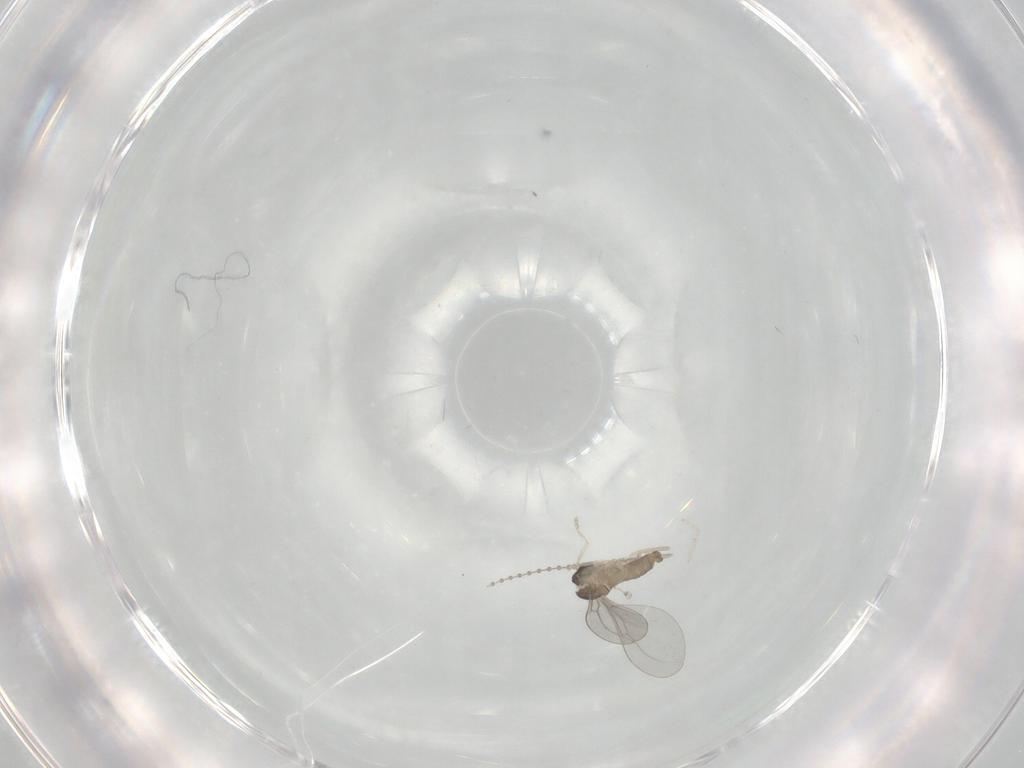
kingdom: Animalia
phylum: Arthropoda
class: Insecta
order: Diptera
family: Cecidomyiidae
